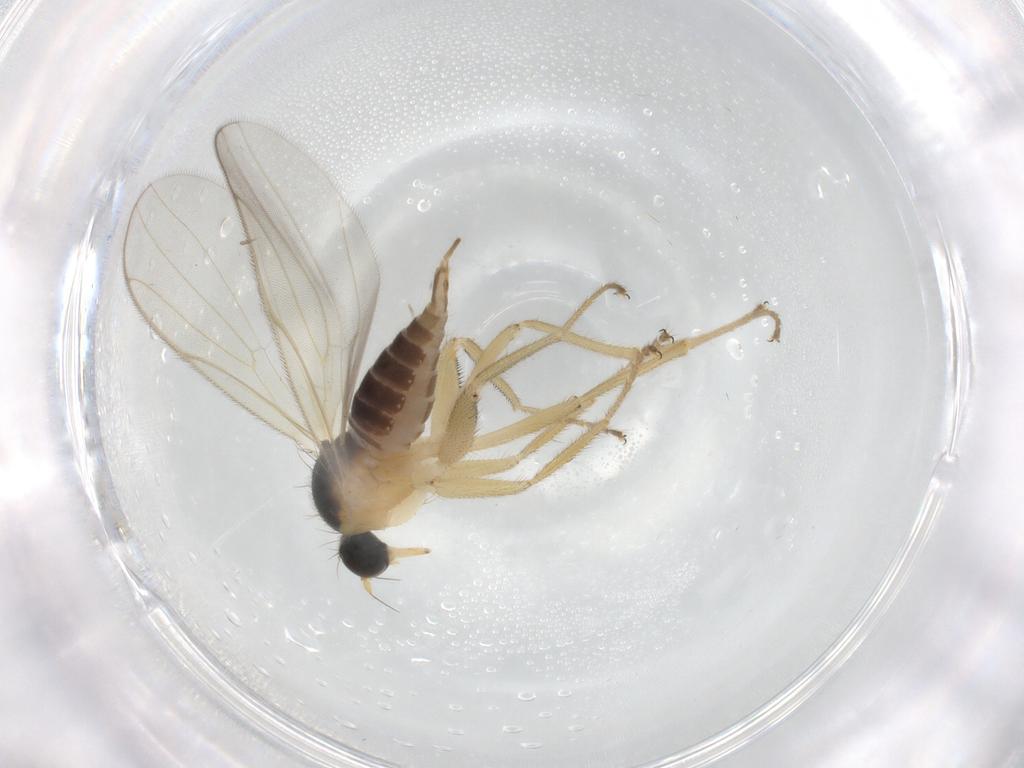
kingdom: Animalia
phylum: Arthropoda
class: Insecta
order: Diptera
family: Hybotidae
